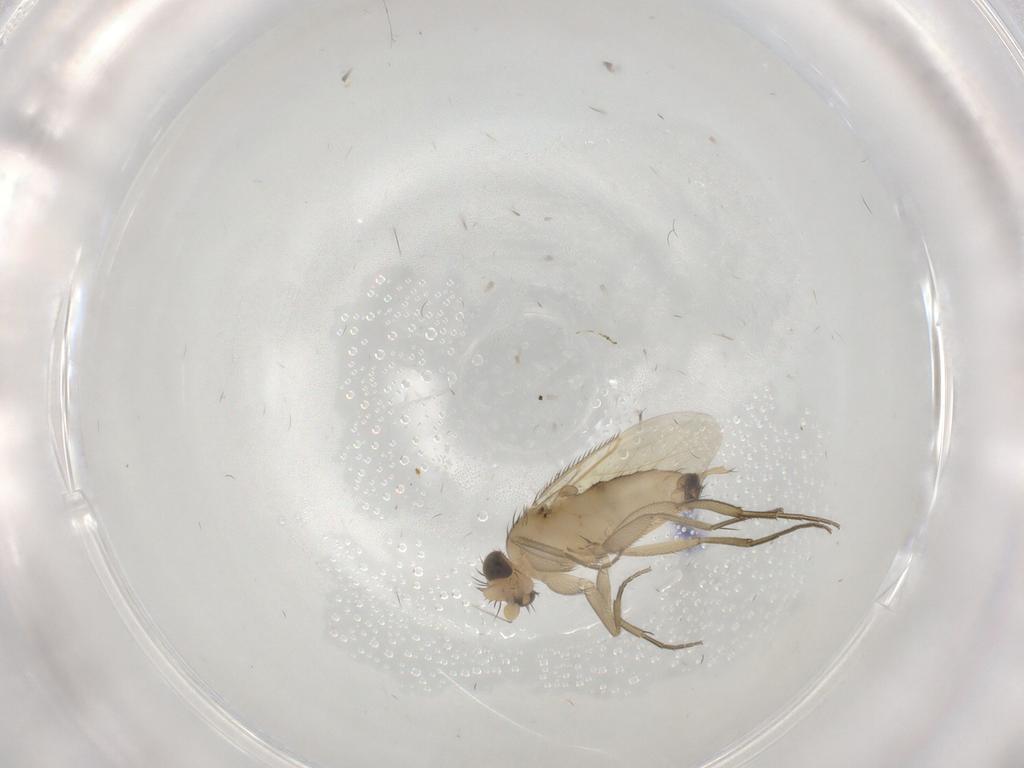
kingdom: Animalia
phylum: Arthropoda
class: Insecta
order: Diptera
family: Phoridae
